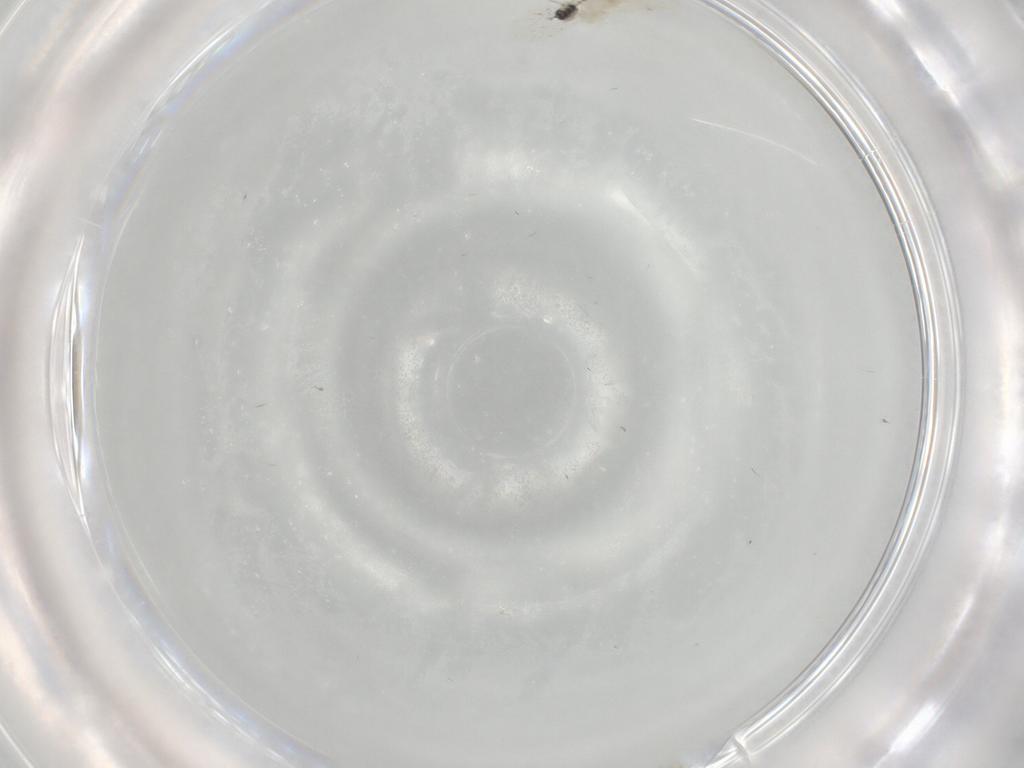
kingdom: Animalia
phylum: Arthropoda
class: Insecta
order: Diptera
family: Cecidomyiidae
